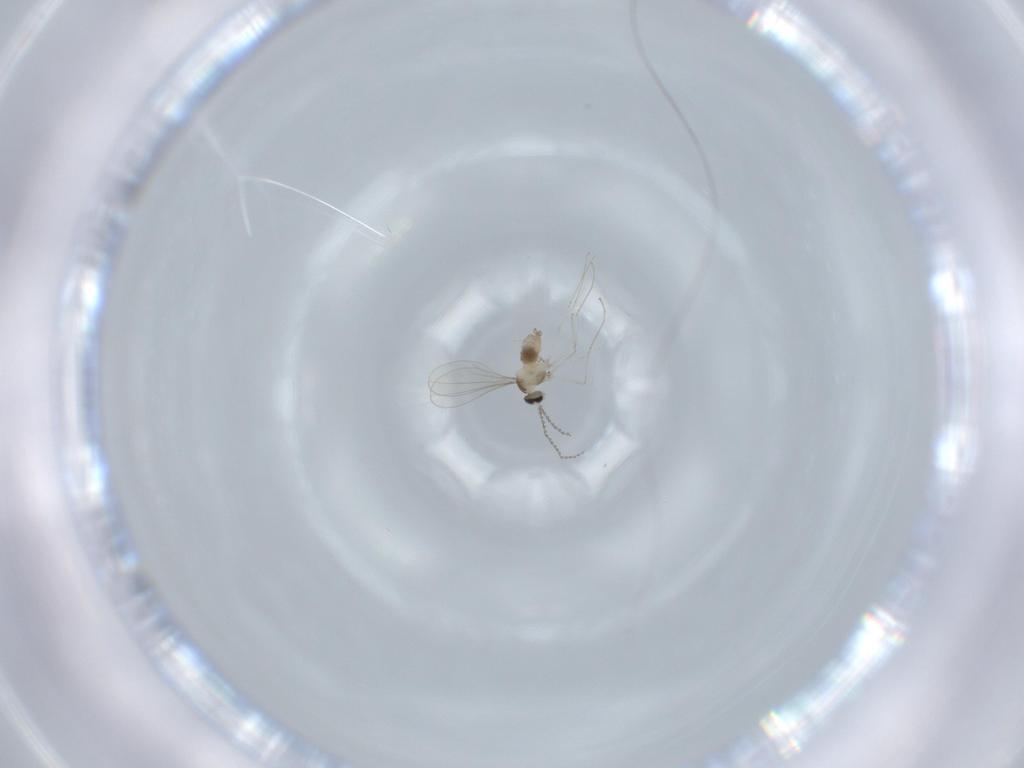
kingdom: Animalia
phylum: Arthropoda
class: Insecta
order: Diptera
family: Cecidomyiidae
